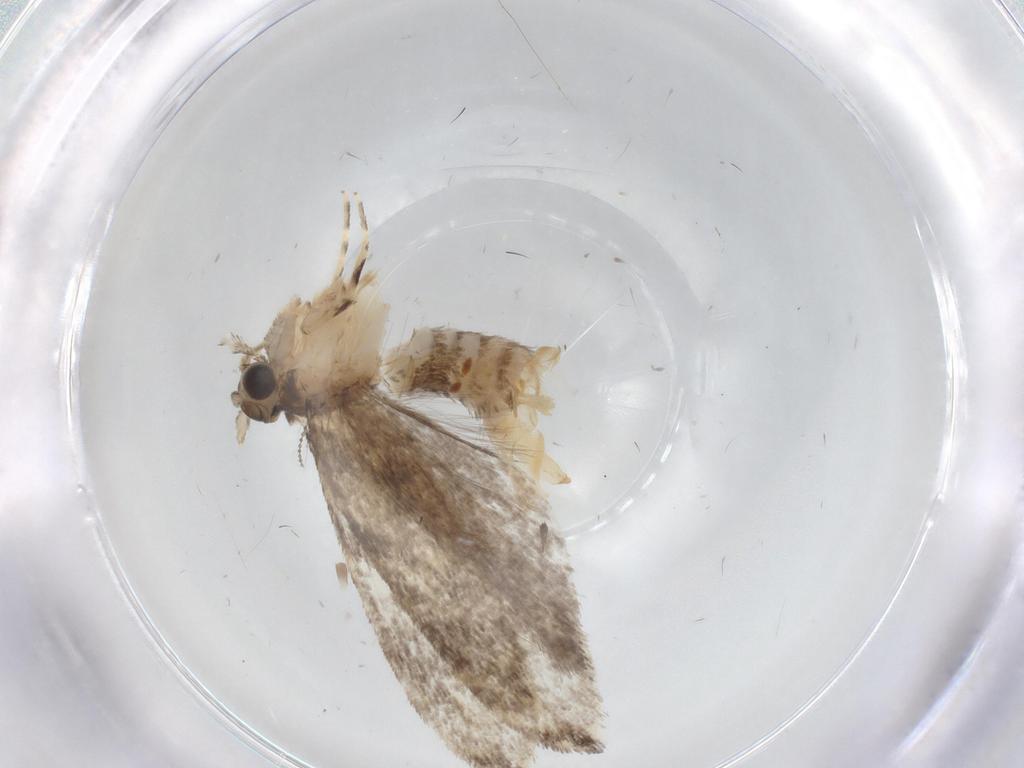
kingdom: Animalia
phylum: Arthropoda
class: Insecta
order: Lepidoptera
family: Tineidae
